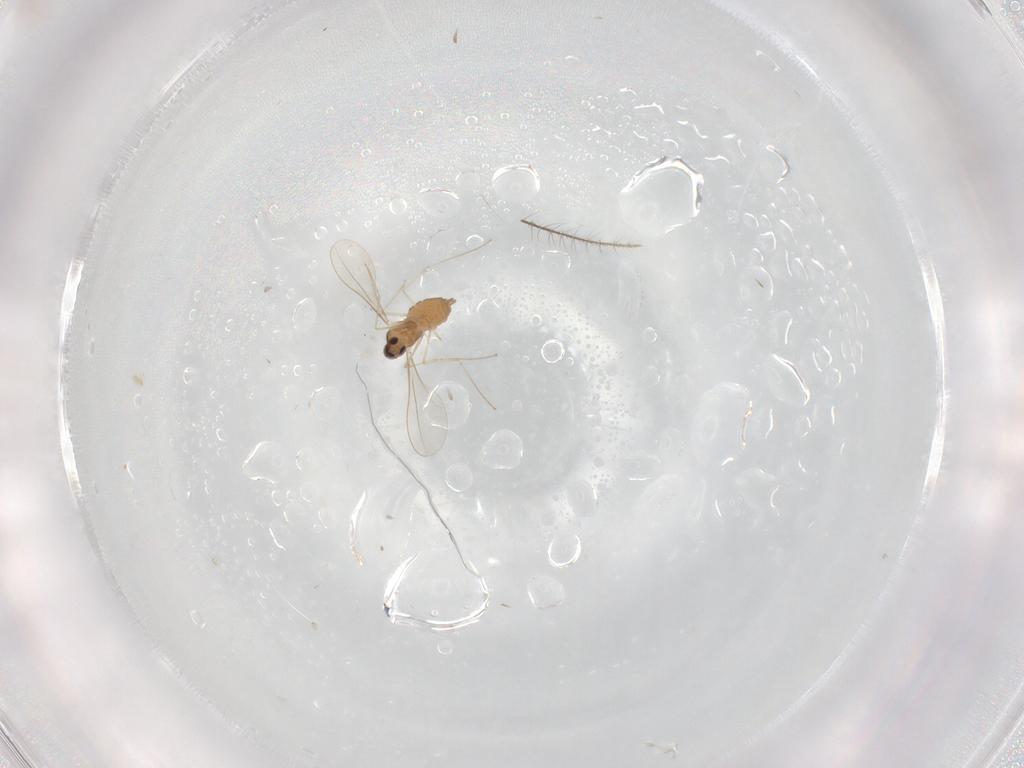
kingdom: Animalia
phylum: Arthropoda
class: Insecta
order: Diptera
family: Cecidomyiidae
